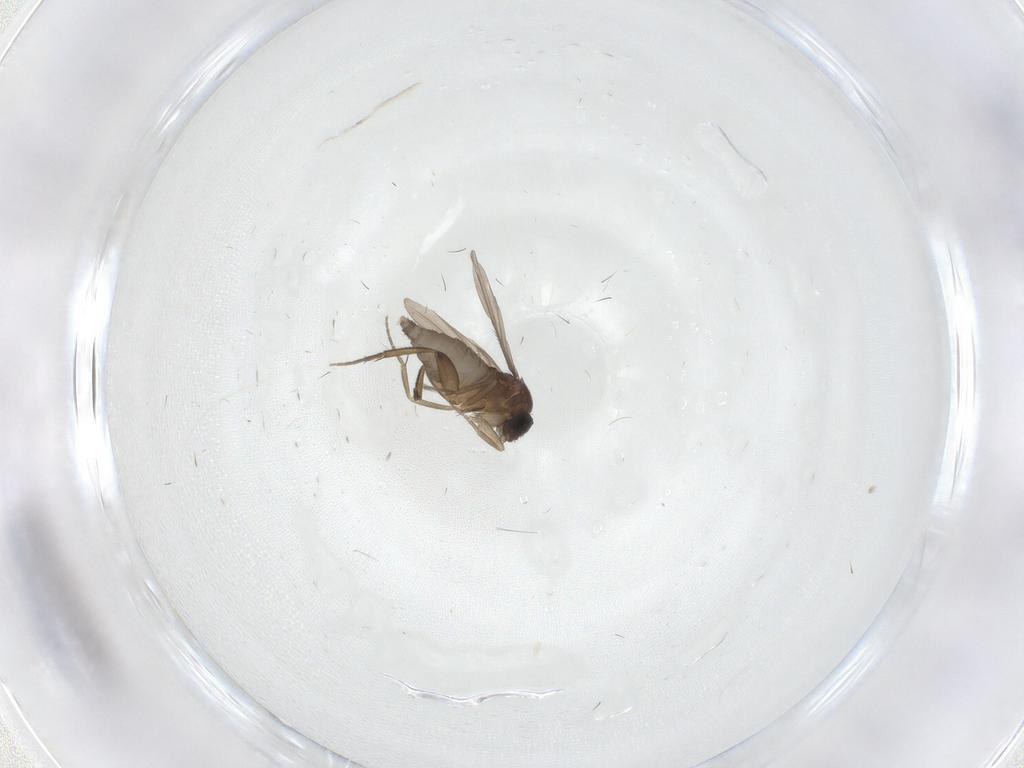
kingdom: Animalia
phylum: Arthropoda
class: Insecta
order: Diptera
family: Phoridae
